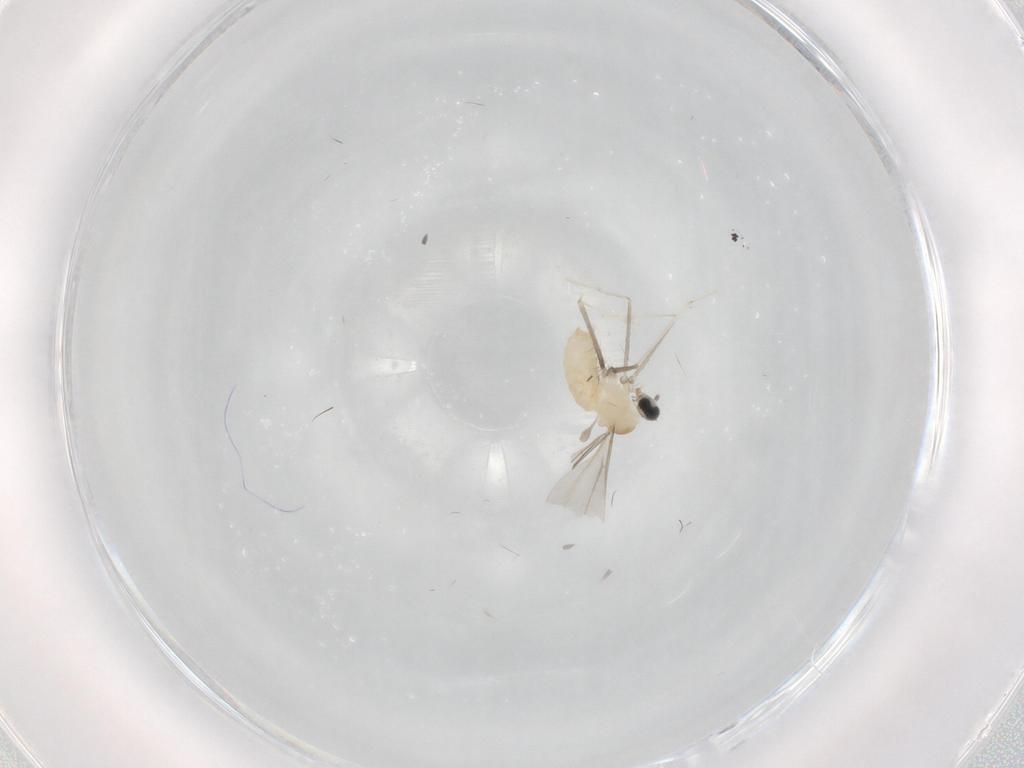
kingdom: Animalia
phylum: Arthropoda
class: Insecta
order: Diptera
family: Cecidomyiidae
